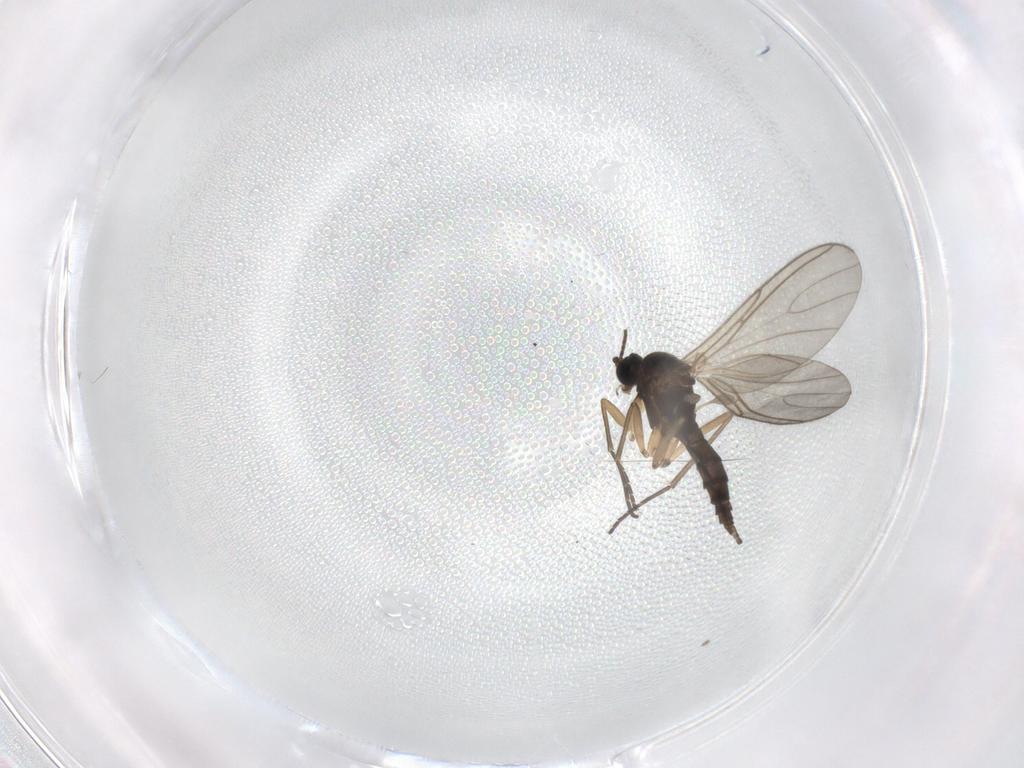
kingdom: Animalia
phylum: Arthropoda
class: Insecta
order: Diptera
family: Sciaridae
